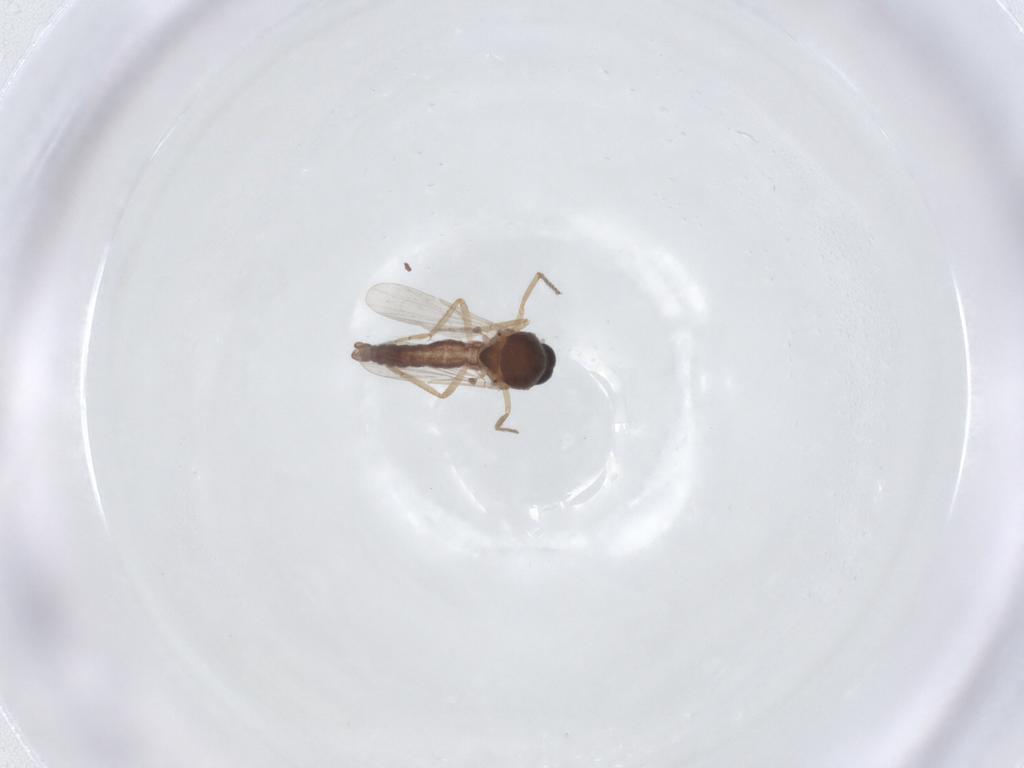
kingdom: Animalia
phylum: Arthropoda
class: Insecta
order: Diptera
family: Ceratopogonidae
